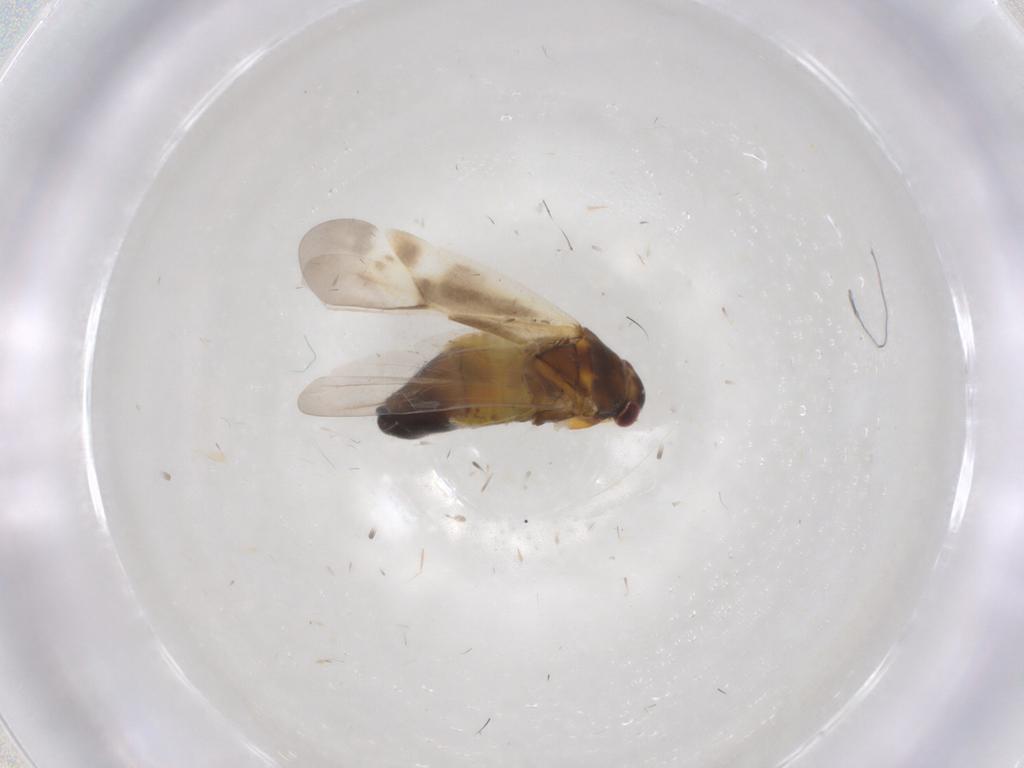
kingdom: Animalia
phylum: Arthropoda
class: Insecta
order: Hemiptera
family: Miridae
